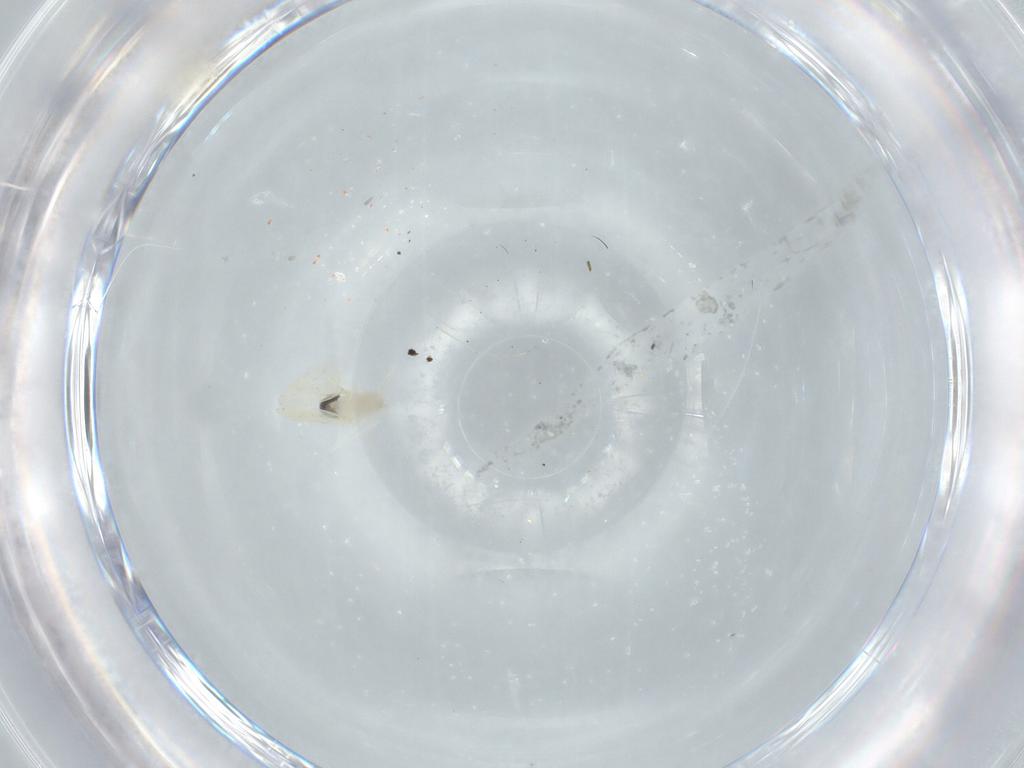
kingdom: Animalia
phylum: Arthropoda
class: Insecta
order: Diptera
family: Cecidomyiidae
